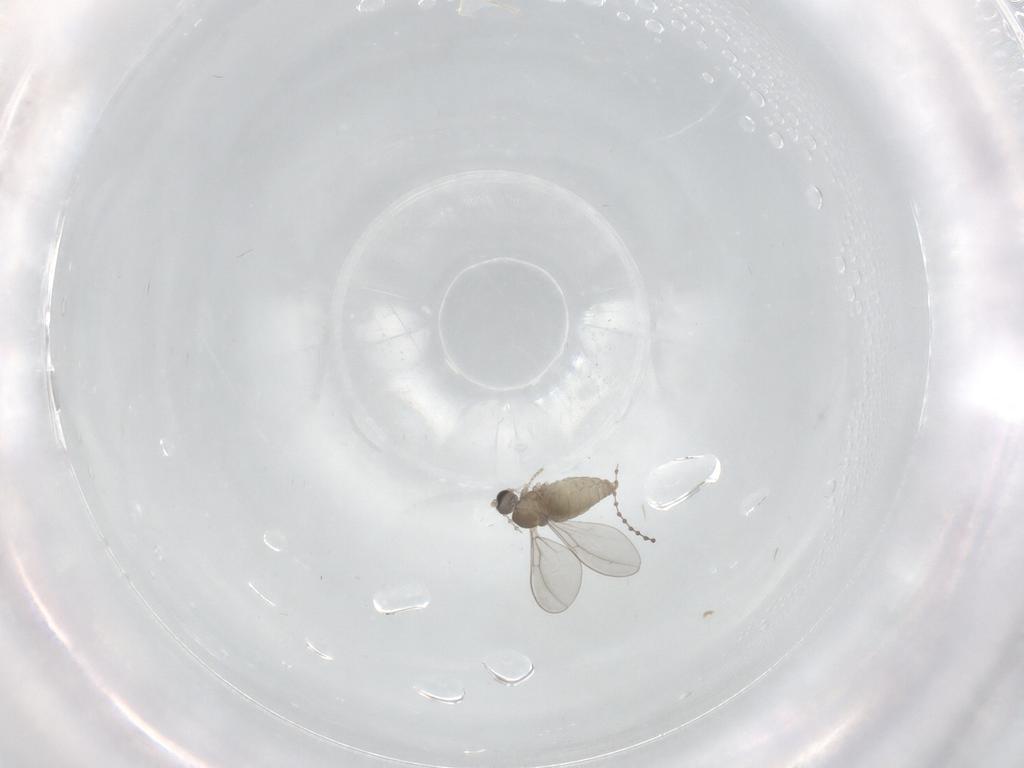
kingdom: Animalia
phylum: Arthropoda
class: Insecta
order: Diptera
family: Cecidomyiidae
